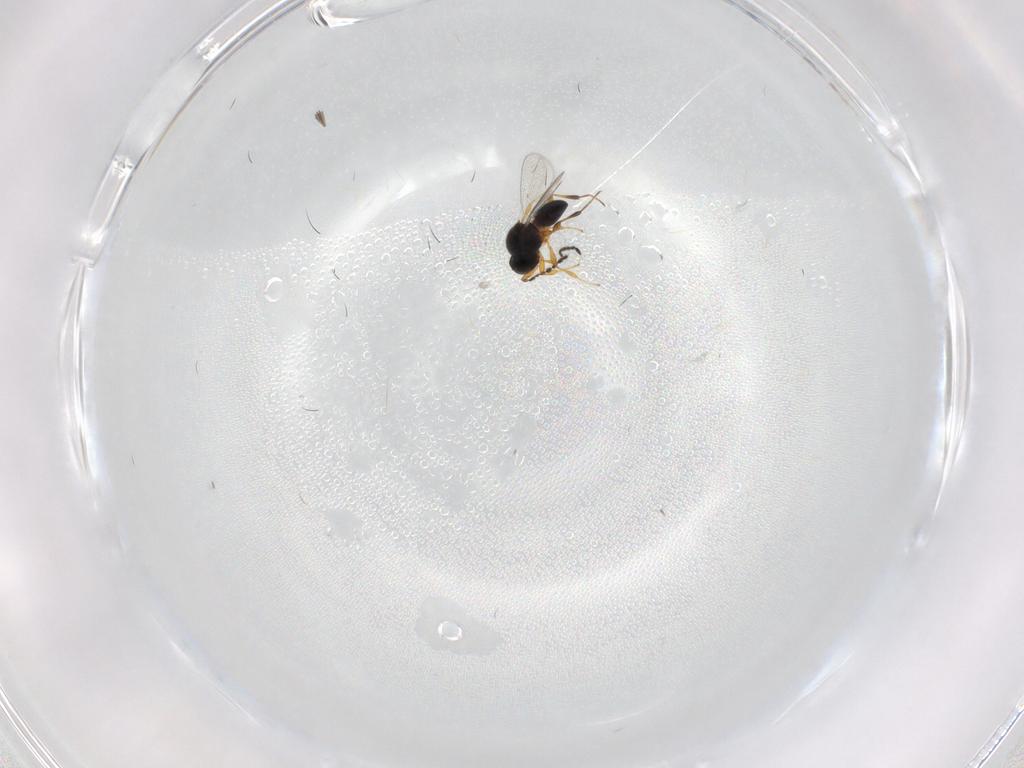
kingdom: Animalia
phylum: Arthropoda
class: Insecta
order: Hymenoptera
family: Platygastridae
